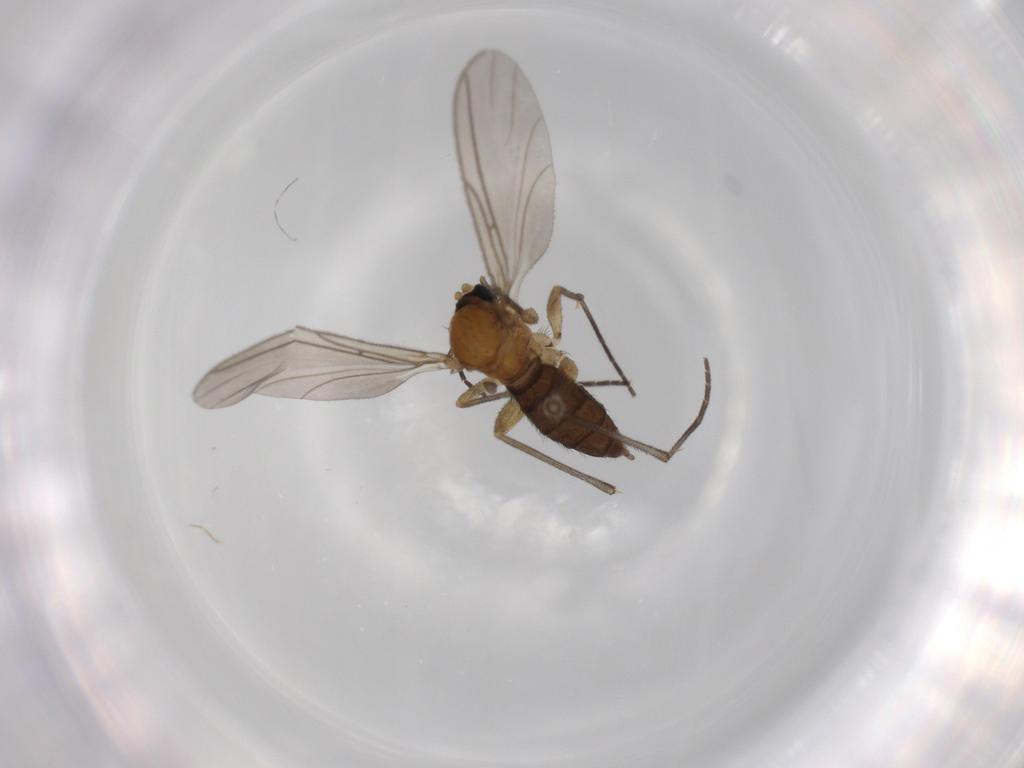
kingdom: Animalia
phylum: Arthropoda
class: Insecta
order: Diptera
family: Sciaridae
